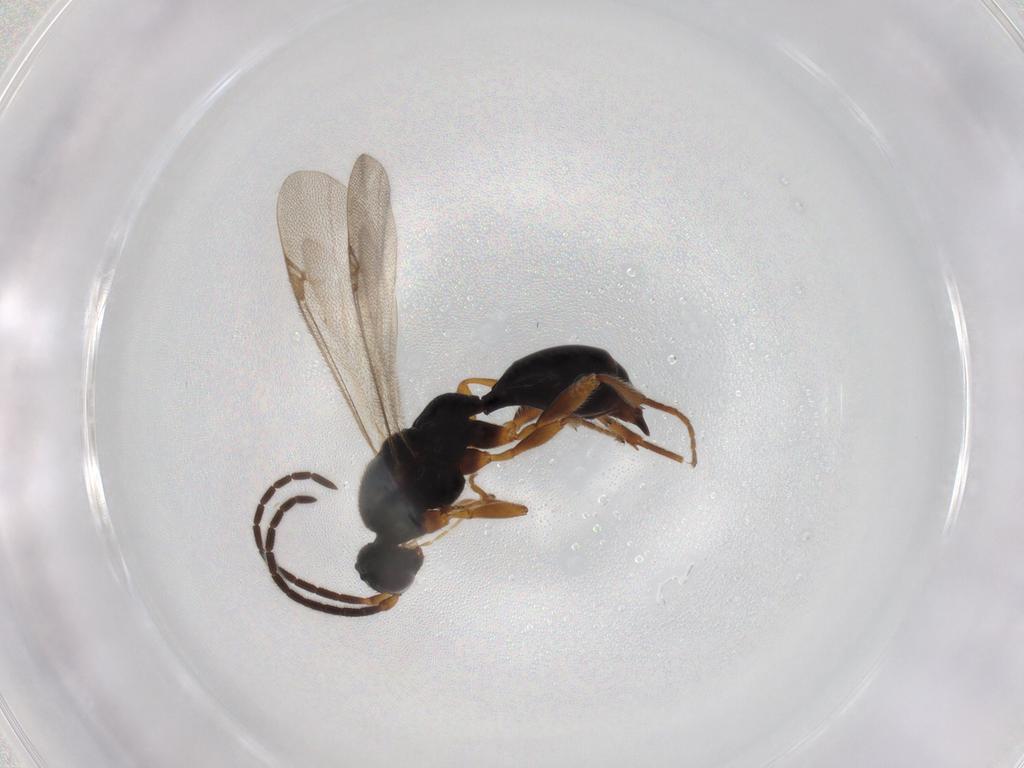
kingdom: Animalia
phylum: Arthropoda
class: Insecta
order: Hymenoptera
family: Proctotrupidae
